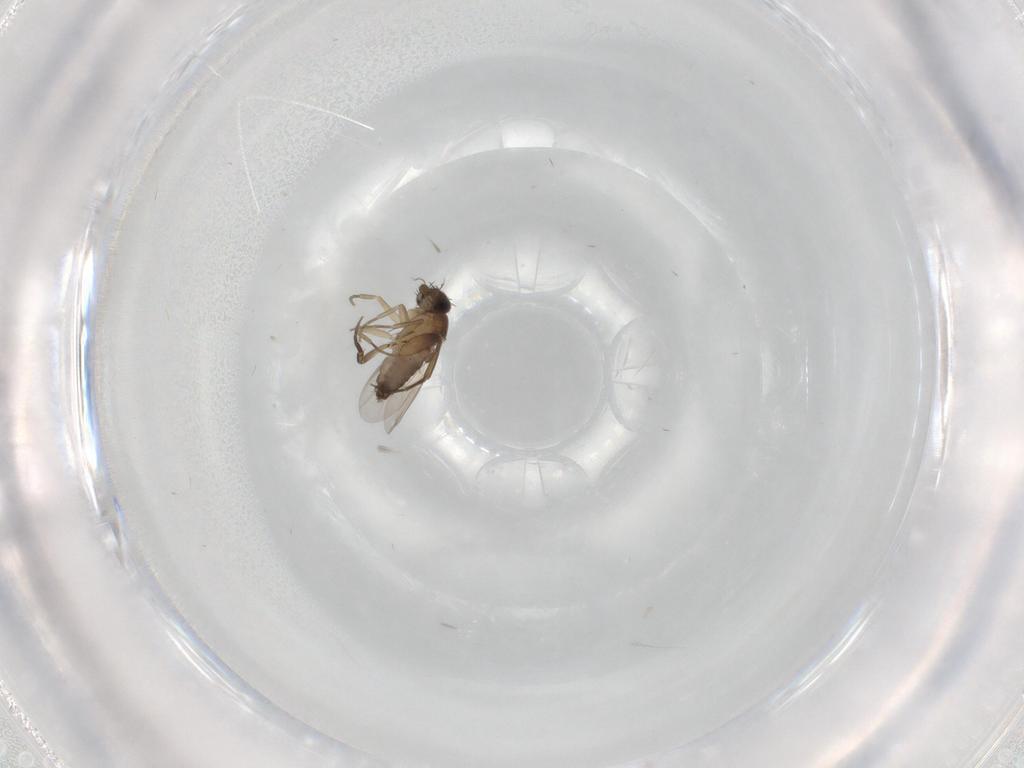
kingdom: Animalia
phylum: Arthropoda
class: Insecta
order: Diptera
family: Phoridae
